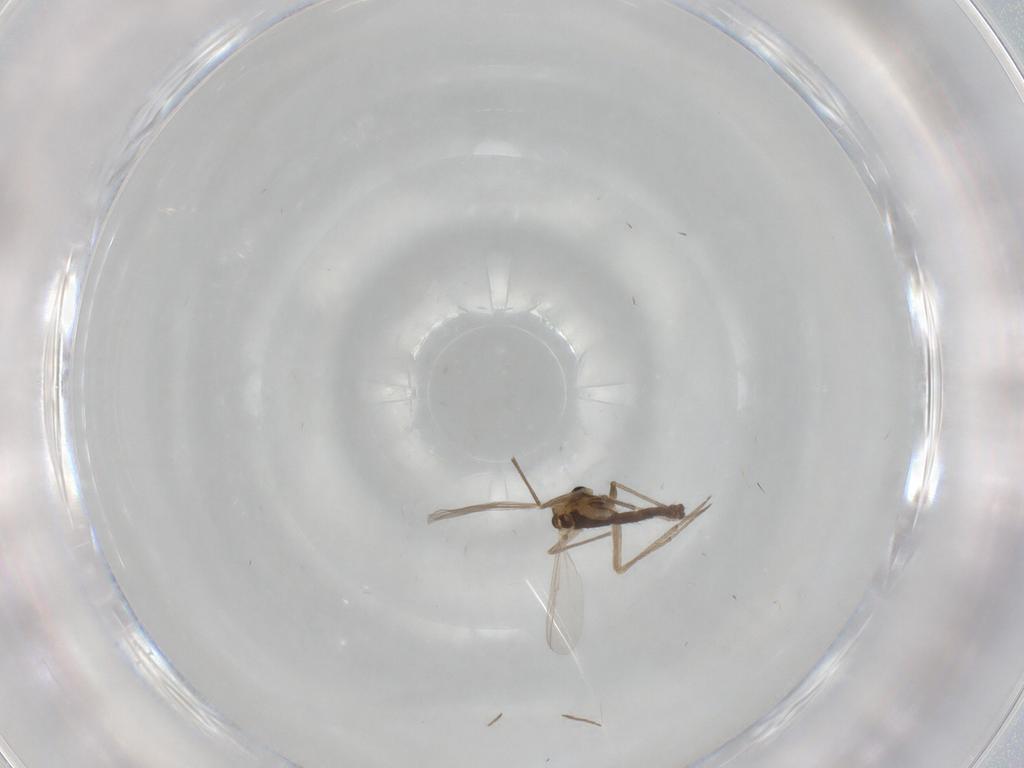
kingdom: Animalia
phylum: Arthropoda
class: Insecta
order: Diptera
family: Chironomidae
